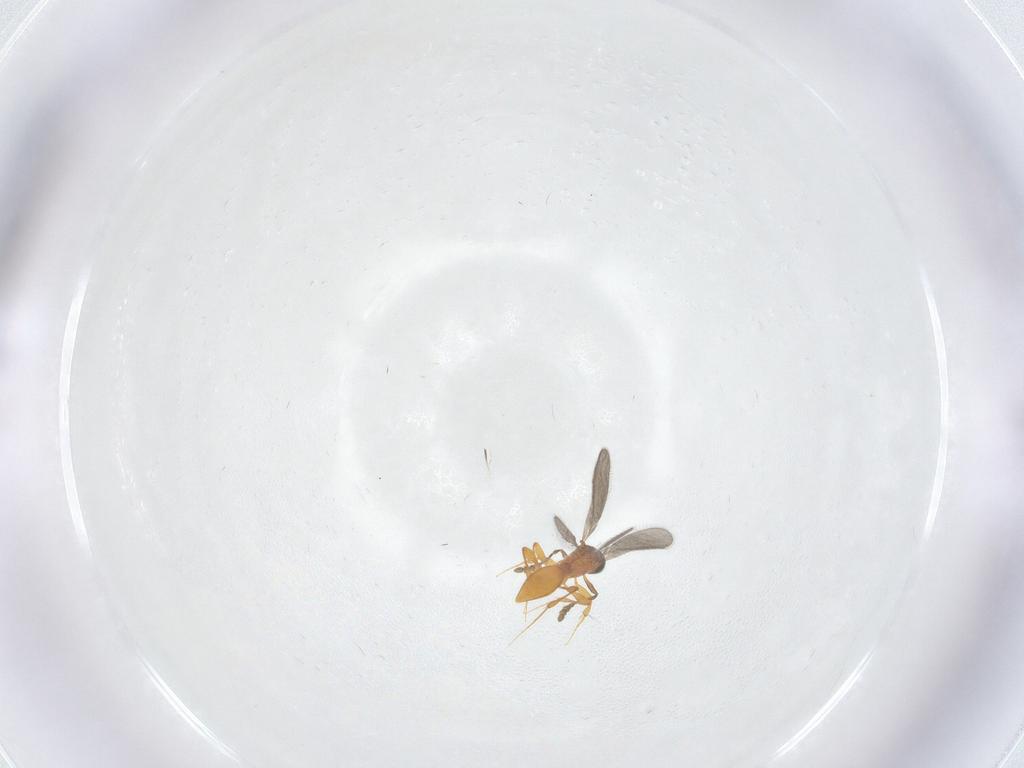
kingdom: Animalia
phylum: Arthropoda
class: Insecta
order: Hymenoptera
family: Platygastridae
